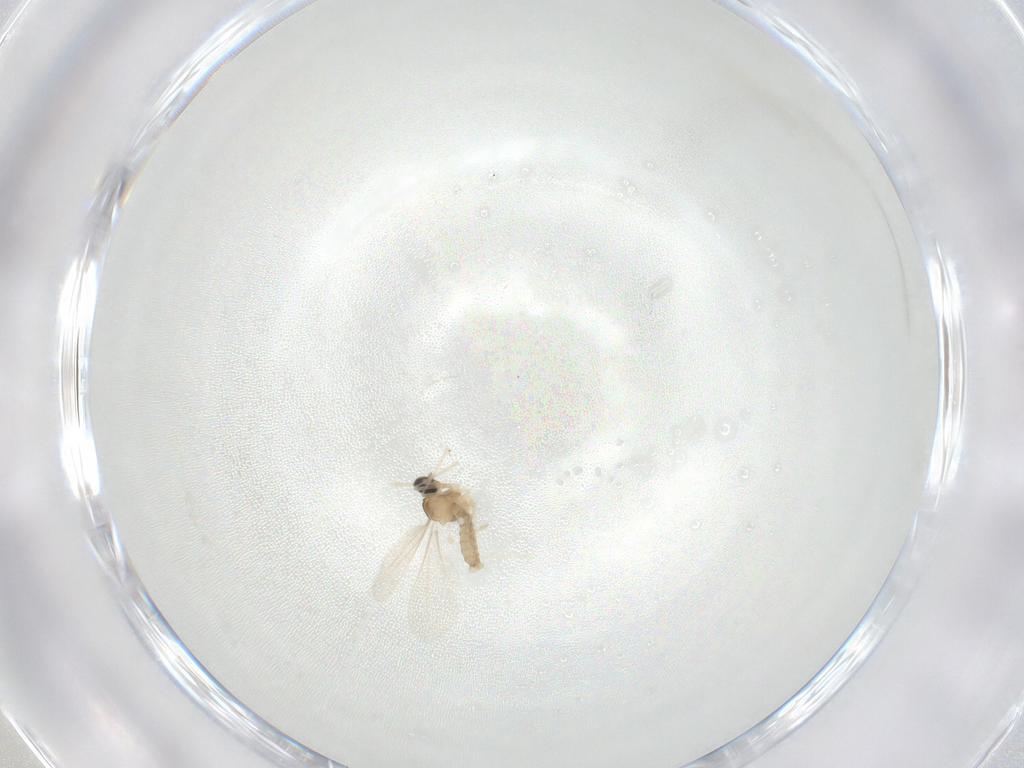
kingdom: Animalia
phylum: Arthropoda
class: Insecta
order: Diptera
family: Cecidomyiidae
